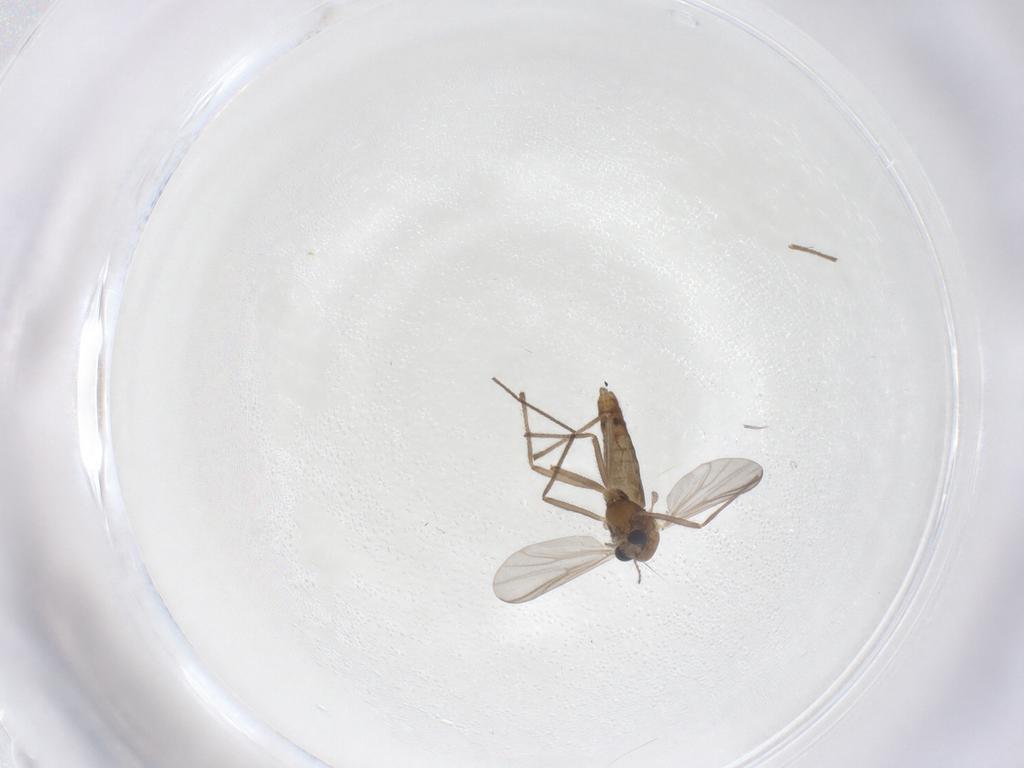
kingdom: Animalia
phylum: Arthropoda
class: Insecta
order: Diptera
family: Chironomidae
